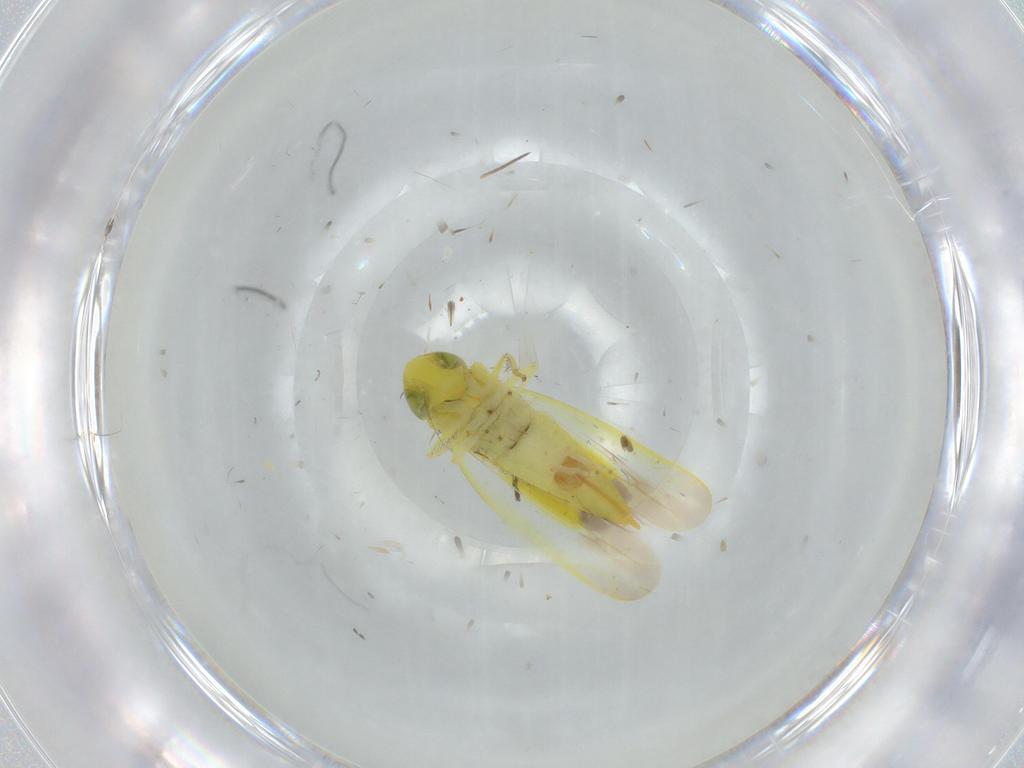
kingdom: Animalia
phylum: Arthropoda
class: Insecta
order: Hemiptera
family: Cicadellidae
